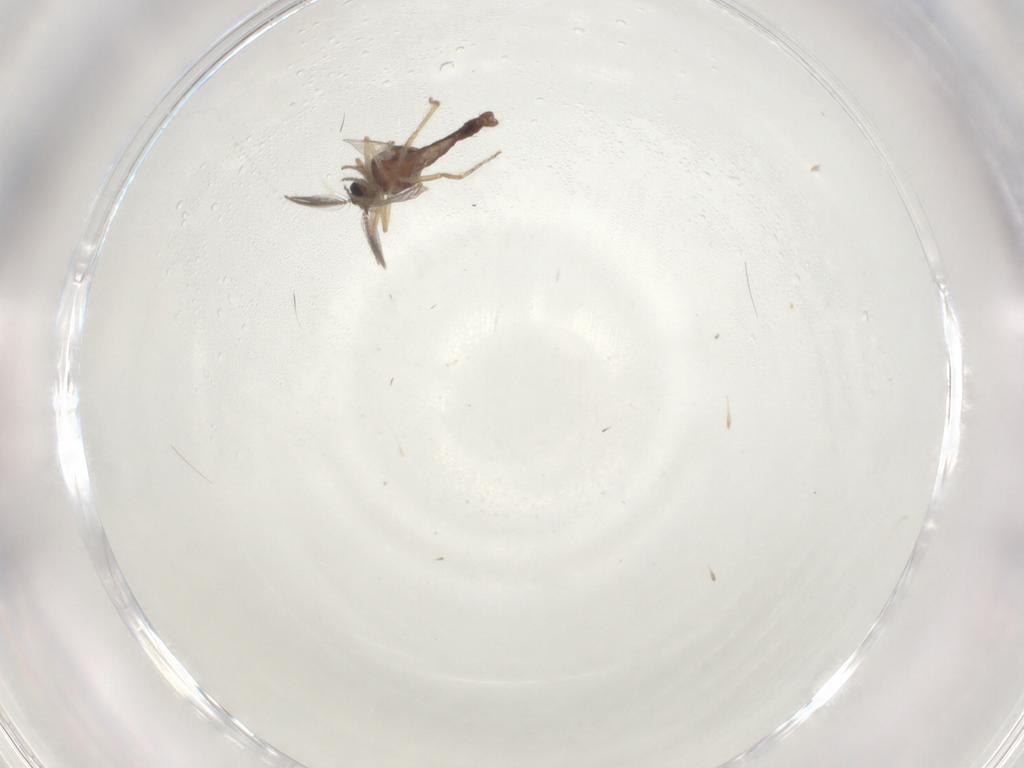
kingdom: Animalia
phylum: Arthropoda
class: Insecta
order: Diptera
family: Ceratopogonidae
